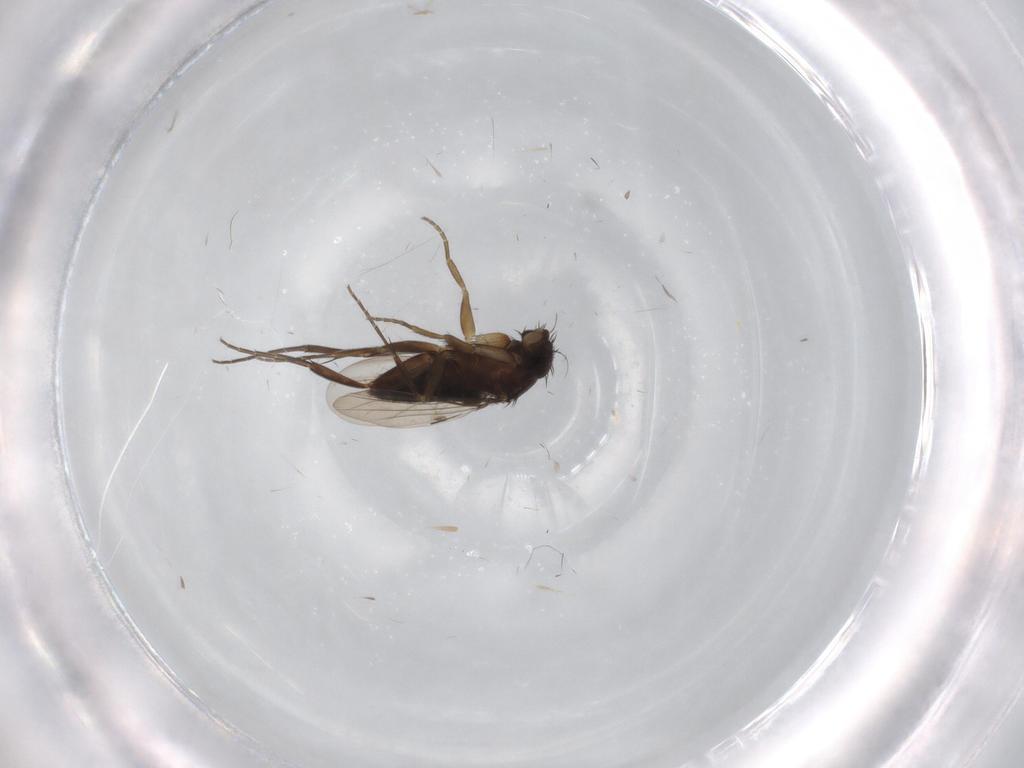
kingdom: Animalia
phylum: Arthropoda
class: Insecta
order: Diptera
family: Phoridae
